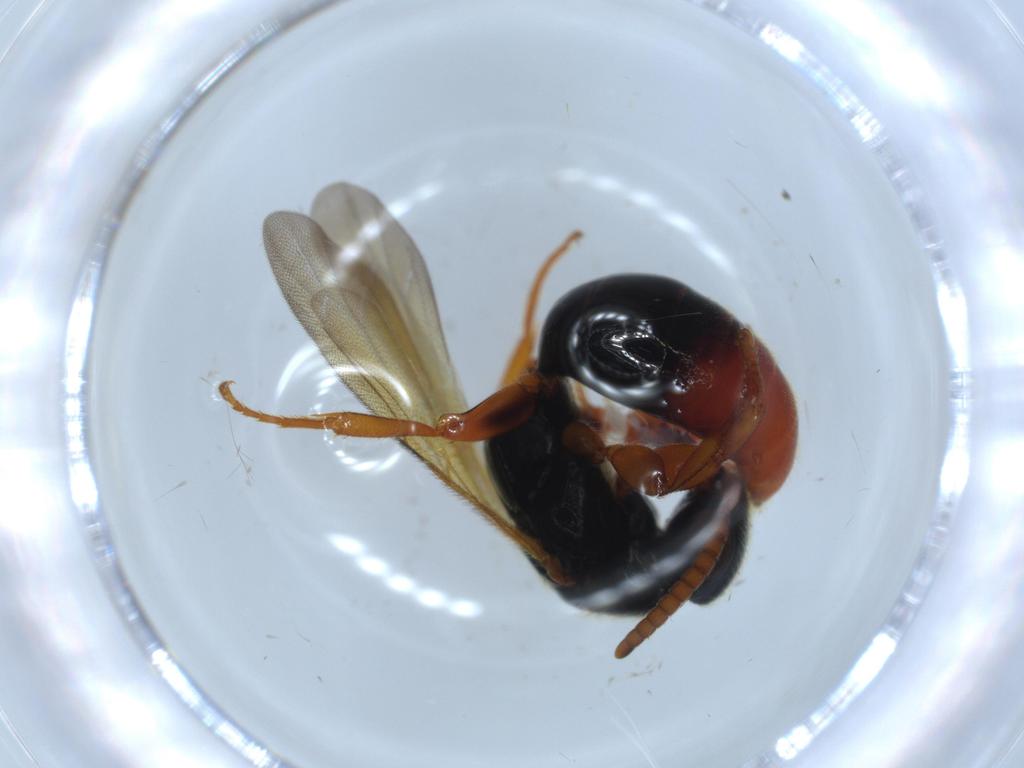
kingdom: Animalia
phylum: Arthropoda
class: Insecta
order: Hymenoptera
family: Bethylidae
